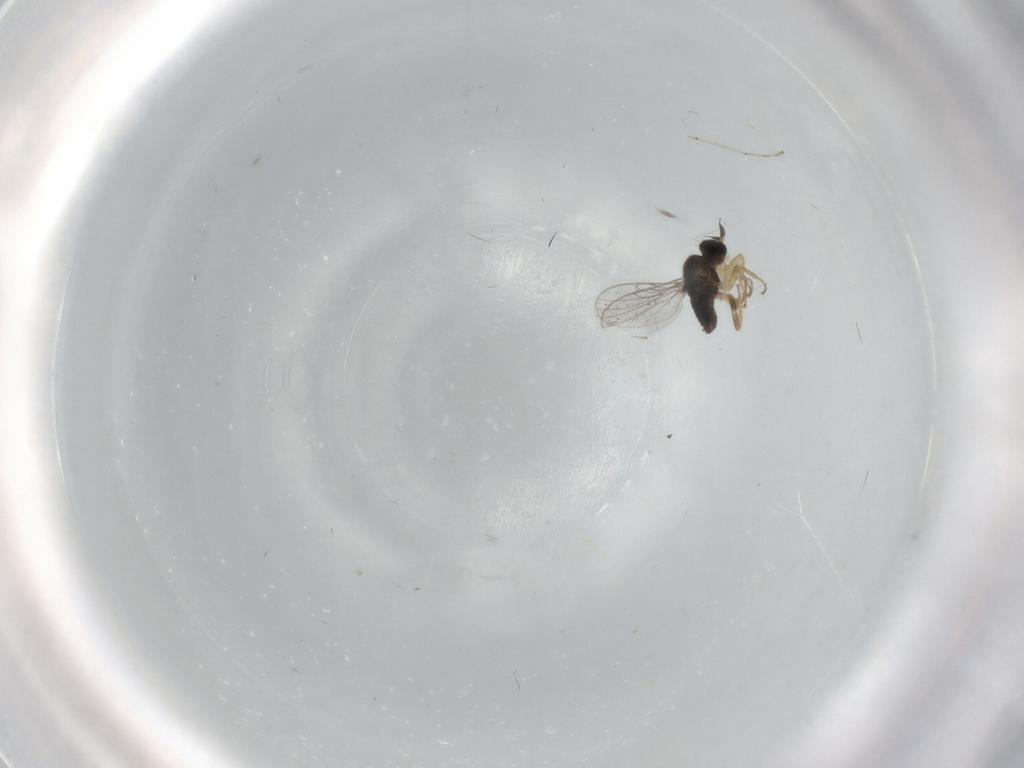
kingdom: Animalia
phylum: Arthropoda
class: Insecta
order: Diptera
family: Hybotidae
